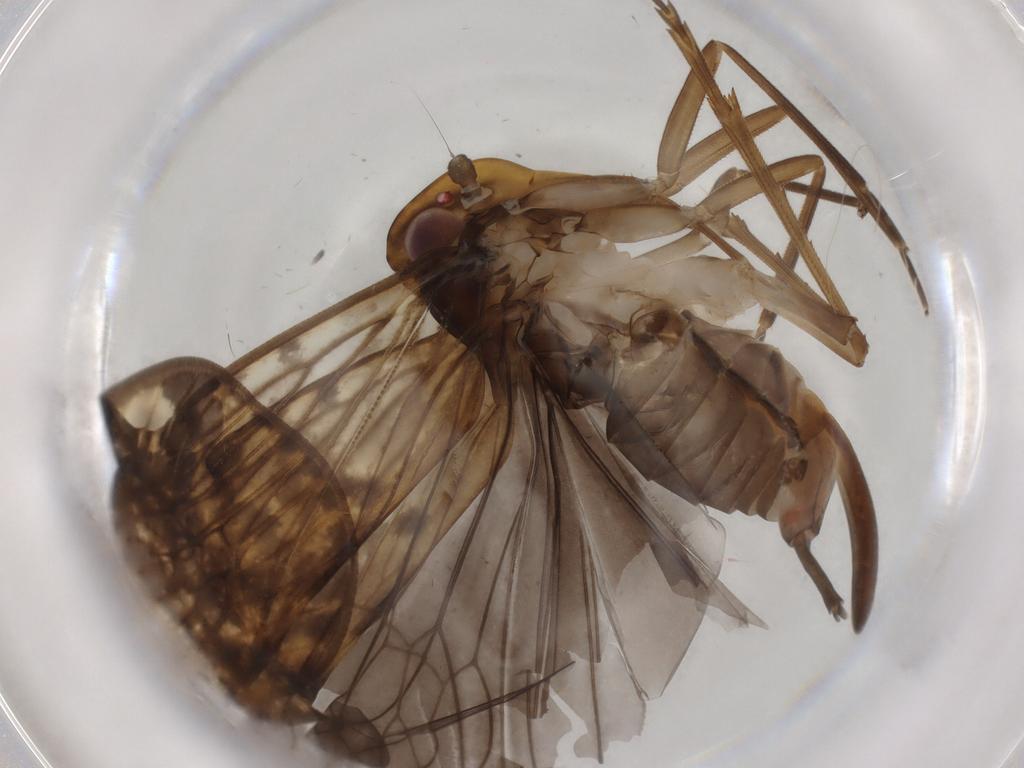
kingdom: Animalia
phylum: Arthropoda
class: Insecta
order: Hemiptera
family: Cixiidae
